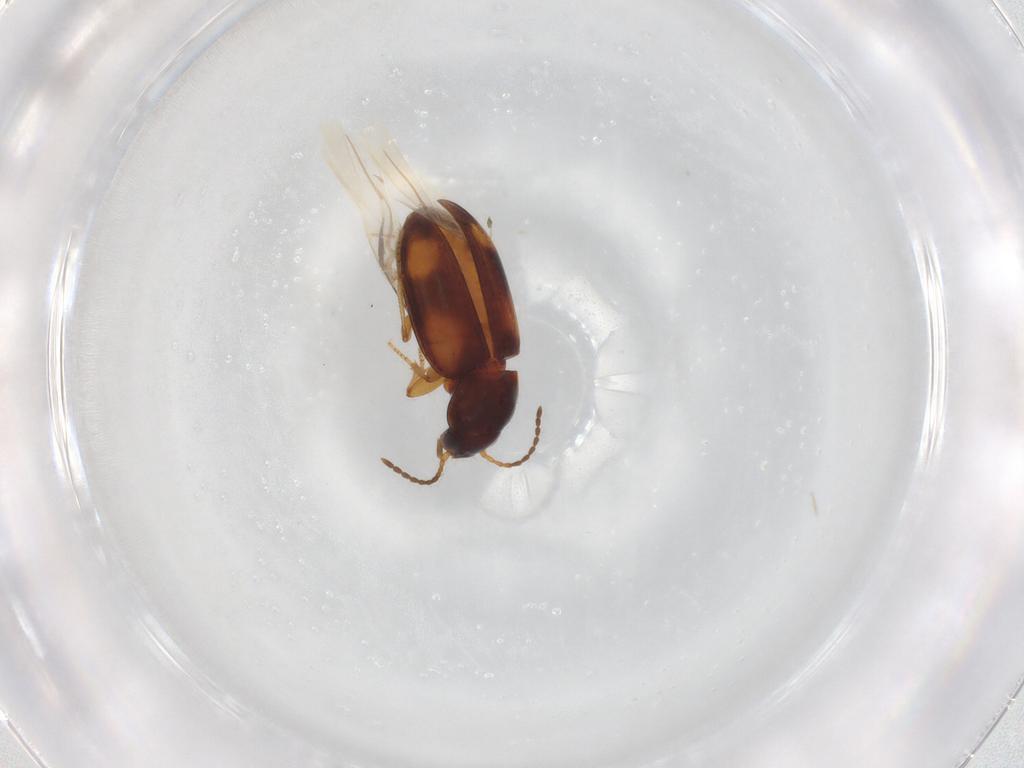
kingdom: Animalia
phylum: Arthropoda
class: Insecta
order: Coleoptera
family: Carabidae
